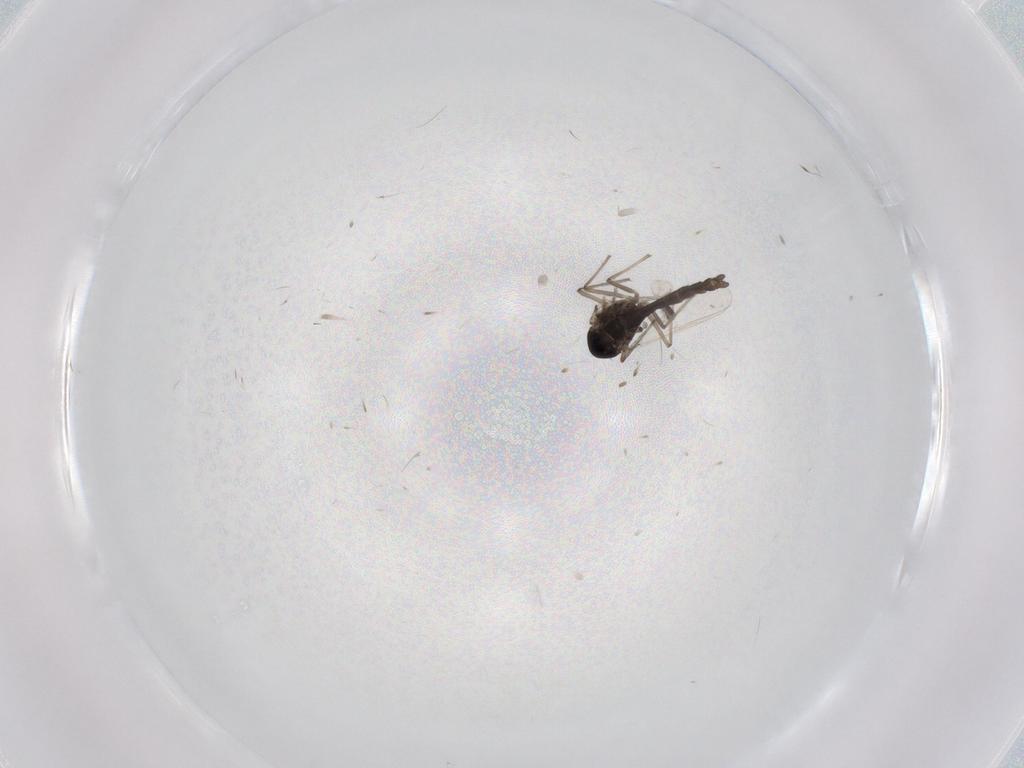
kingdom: Animalia
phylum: Arthropoda
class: Insecta
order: Diptera
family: Chironomidae
